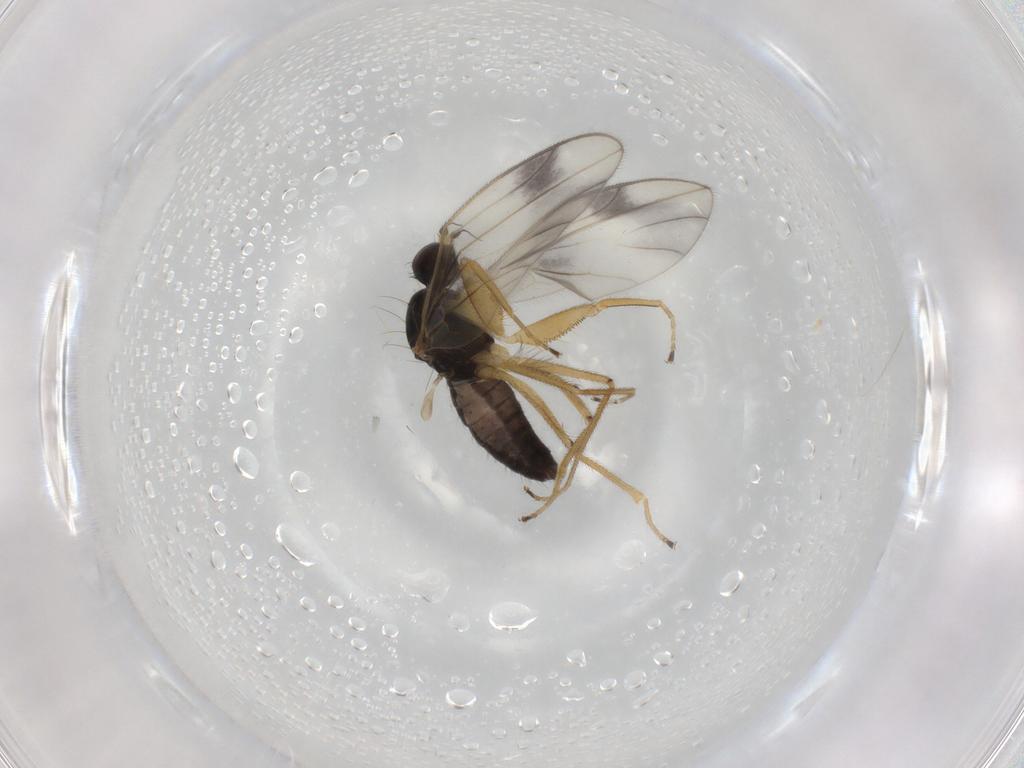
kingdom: Animalia
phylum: Arthropoda
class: Insecta
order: Diptera
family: Empididae
